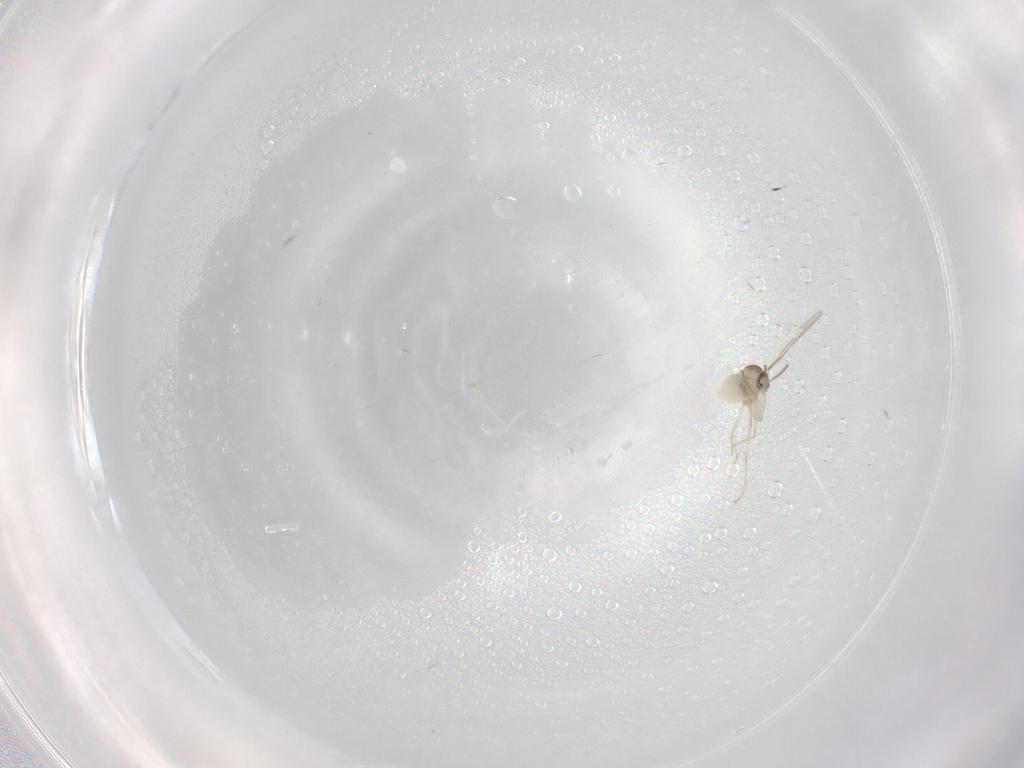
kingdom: Animalia
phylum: Arthropoda
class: Insecta
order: Diptera
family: Cecidomyiidae
